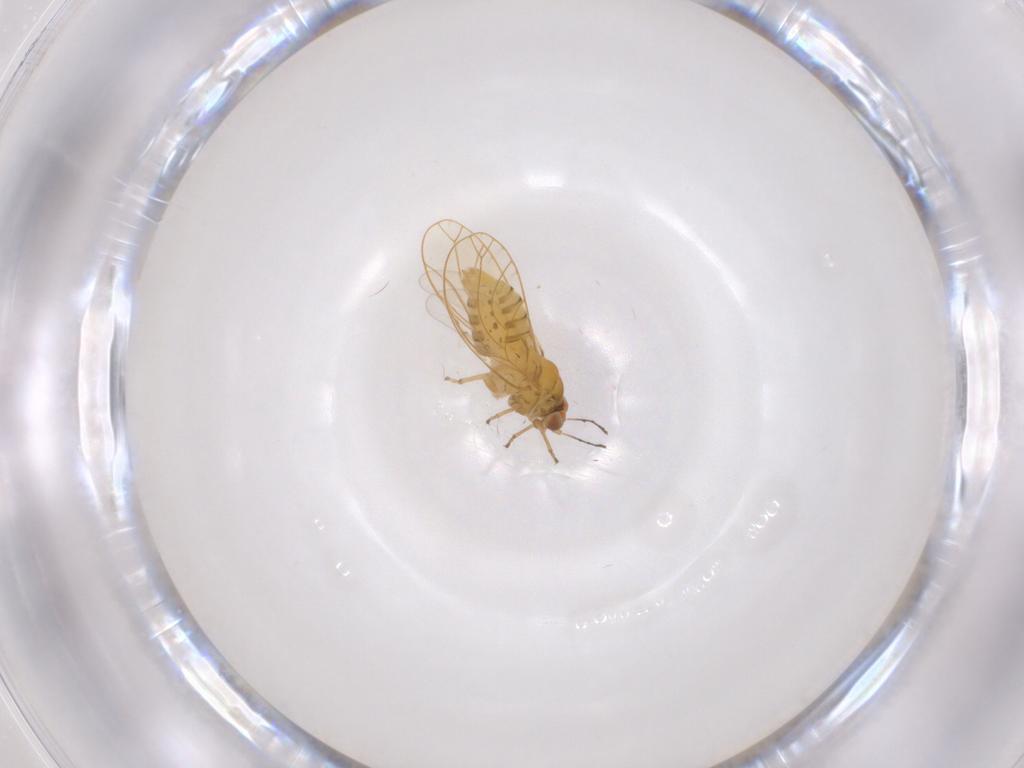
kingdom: Animalia
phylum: Arthropoda
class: Insecta
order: Hemiptera
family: Psylloidea_incertae_sedis
